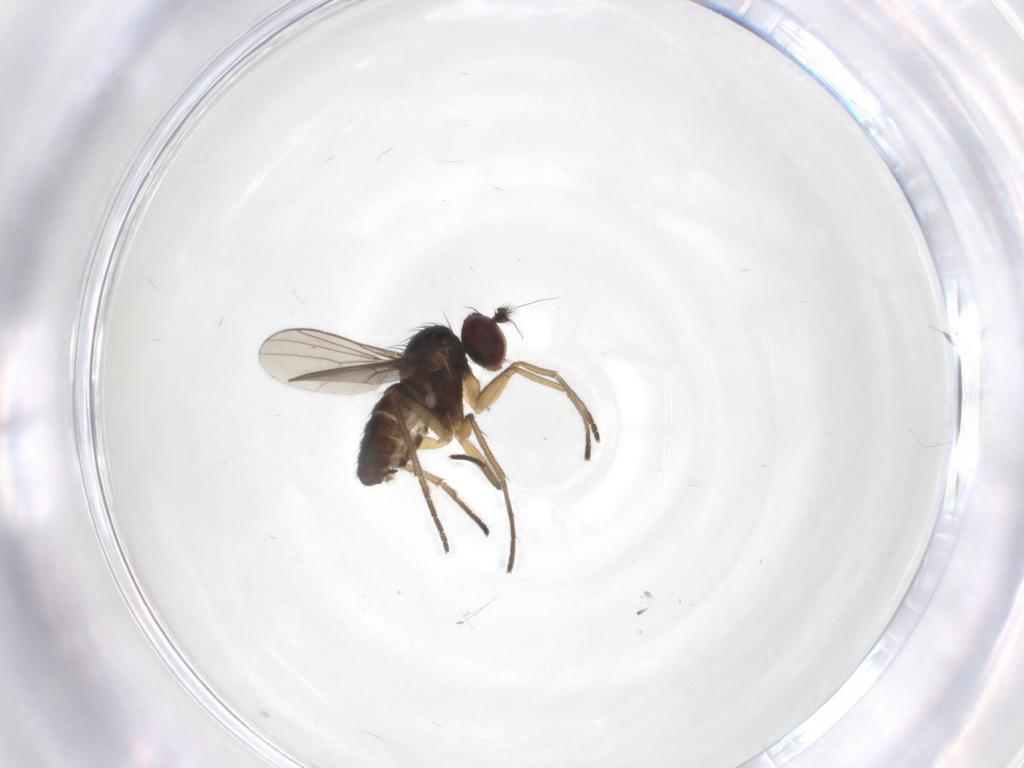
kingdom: Animalia
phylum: Arthropoda
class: Insecta
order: Diptera
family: Dolichopodidae
